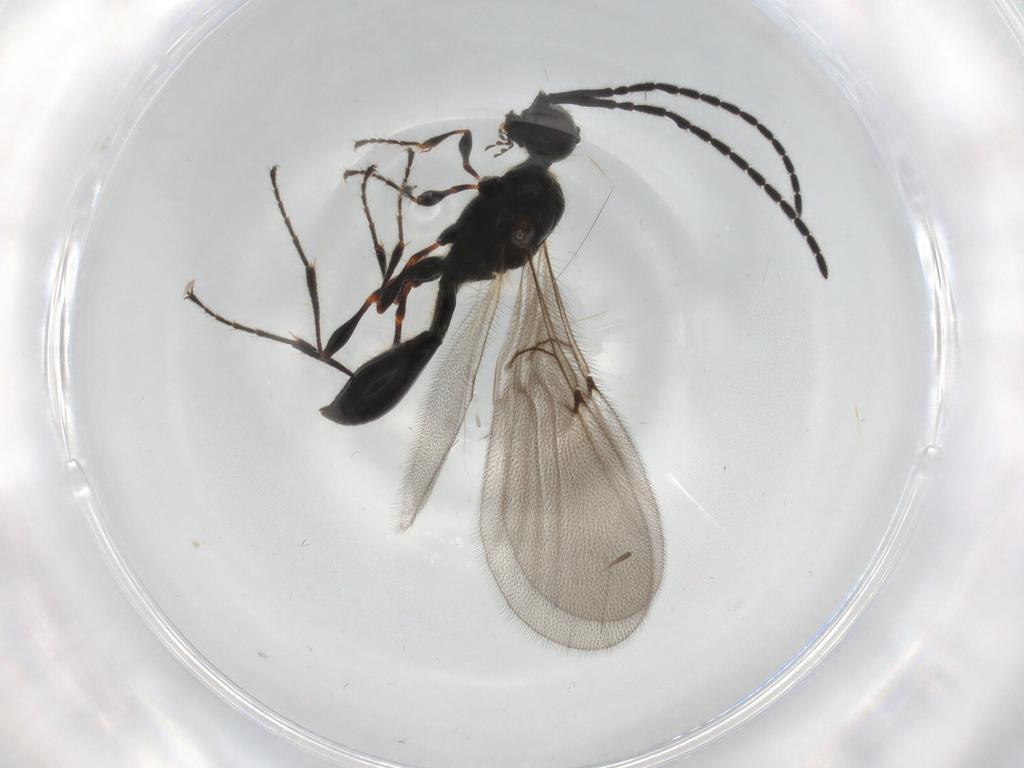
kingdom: Animalia
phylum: Arthropoda
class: Insecta
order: Hymenoptera
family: Diapriidae
